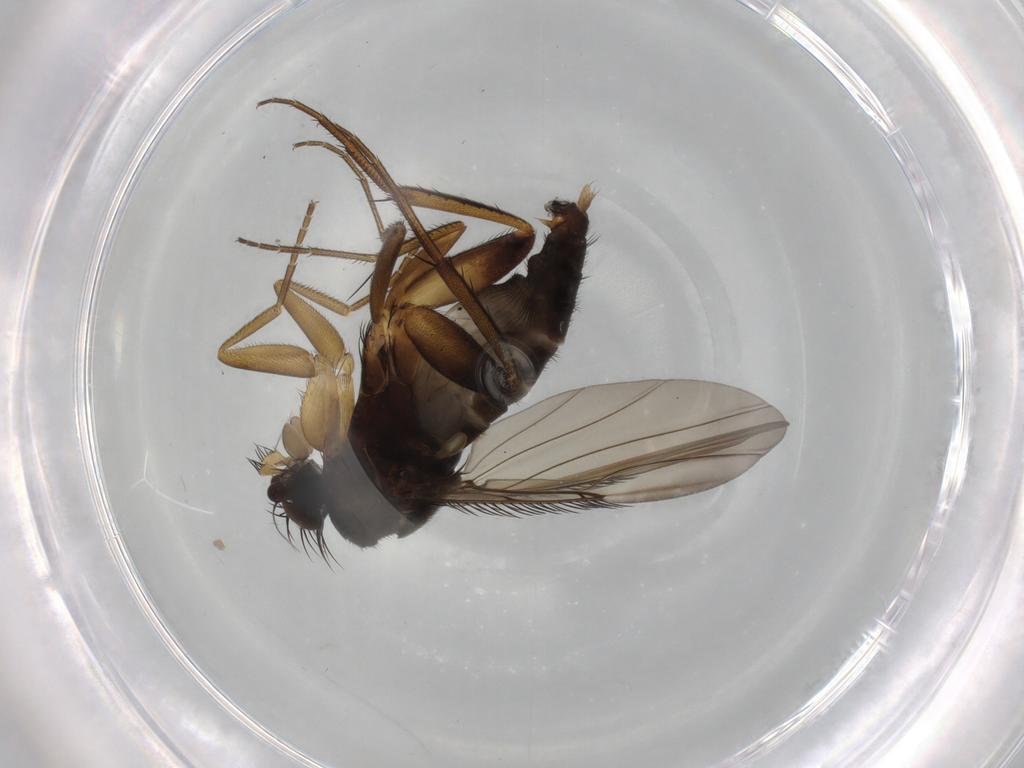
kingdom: Animalia
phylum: Arthropoda
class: Insecta
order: Diptera
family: Phoridae
